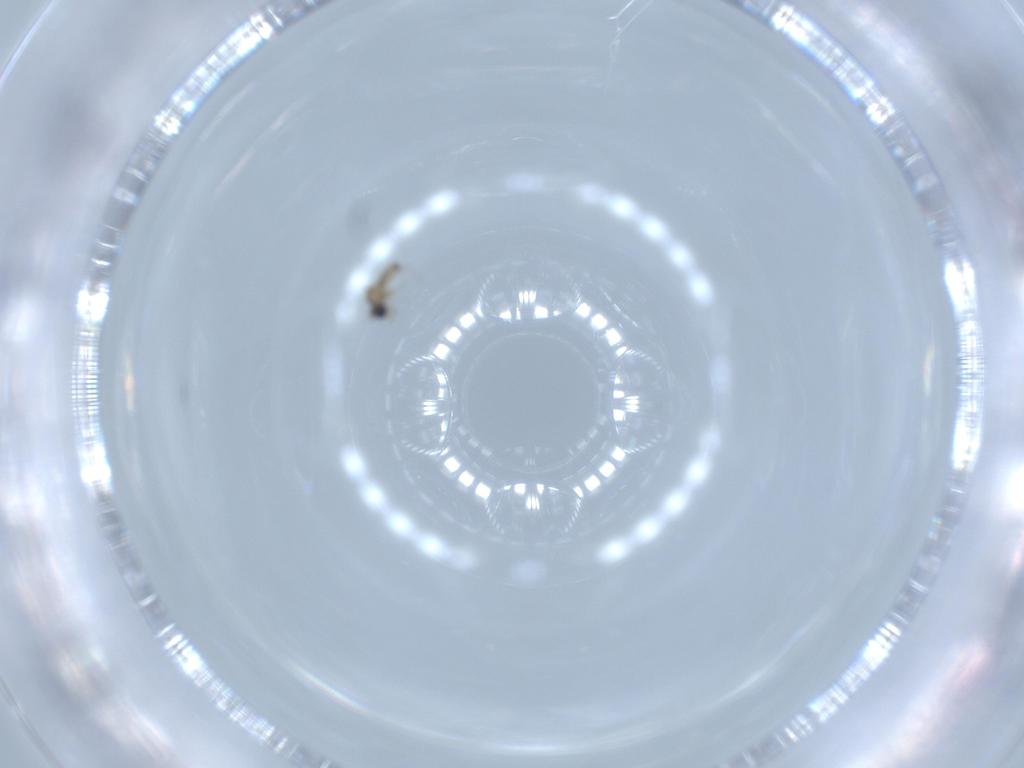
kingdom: Animalia
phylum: Arthropoda
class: Insecta
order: Diptera
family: Cecidomyiidae
